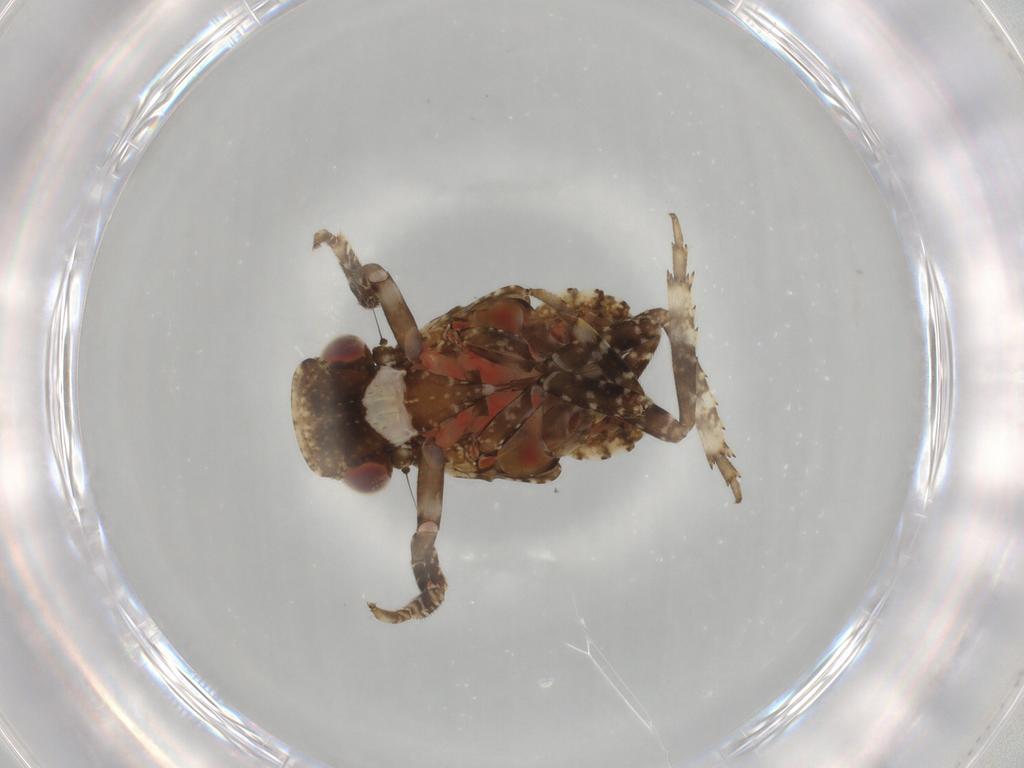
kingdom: Animalia
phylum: Arthropoda
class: Insecta
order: Hemiptera
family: Fulgoridae
